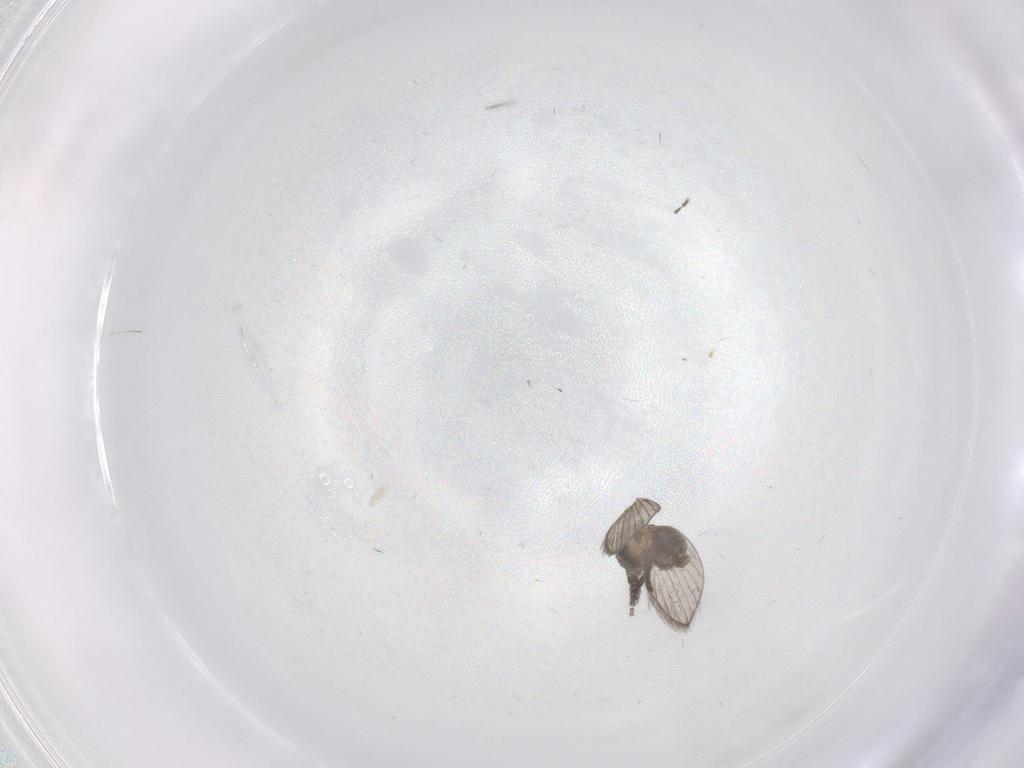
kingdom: Animalia
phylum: Arthropoda
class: Insecta
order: Diptera
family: Psychodidae
